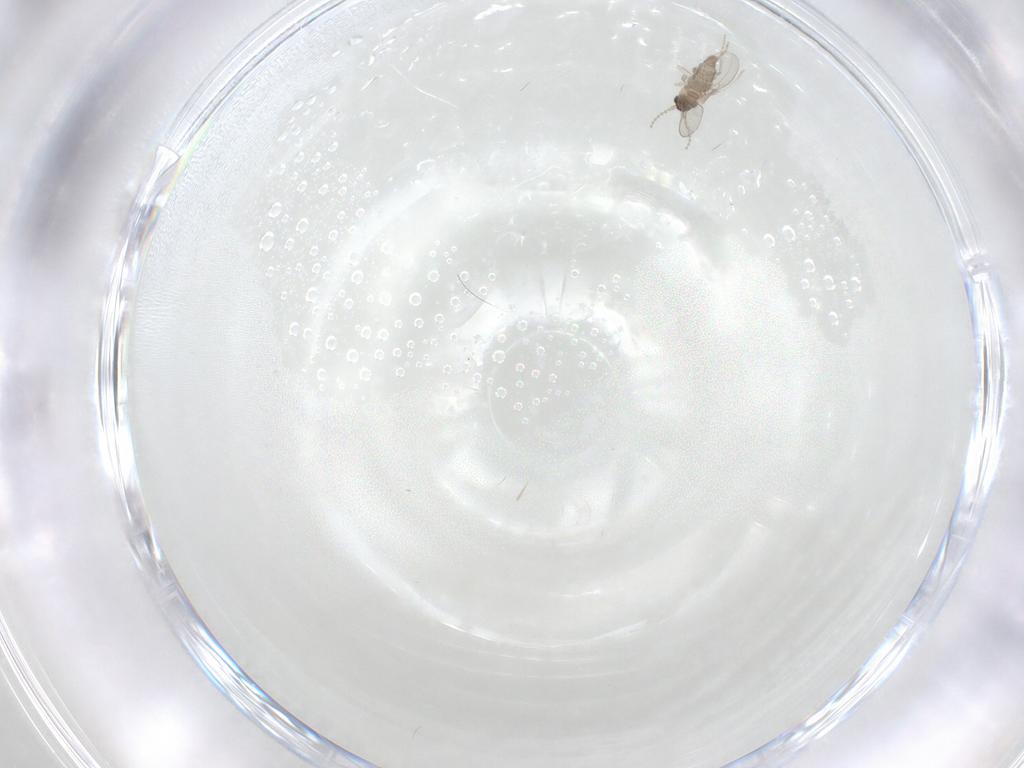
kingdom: Animalia
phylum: Arthropoda
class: Insecta
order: Diptera
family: Cecidomyiidae
